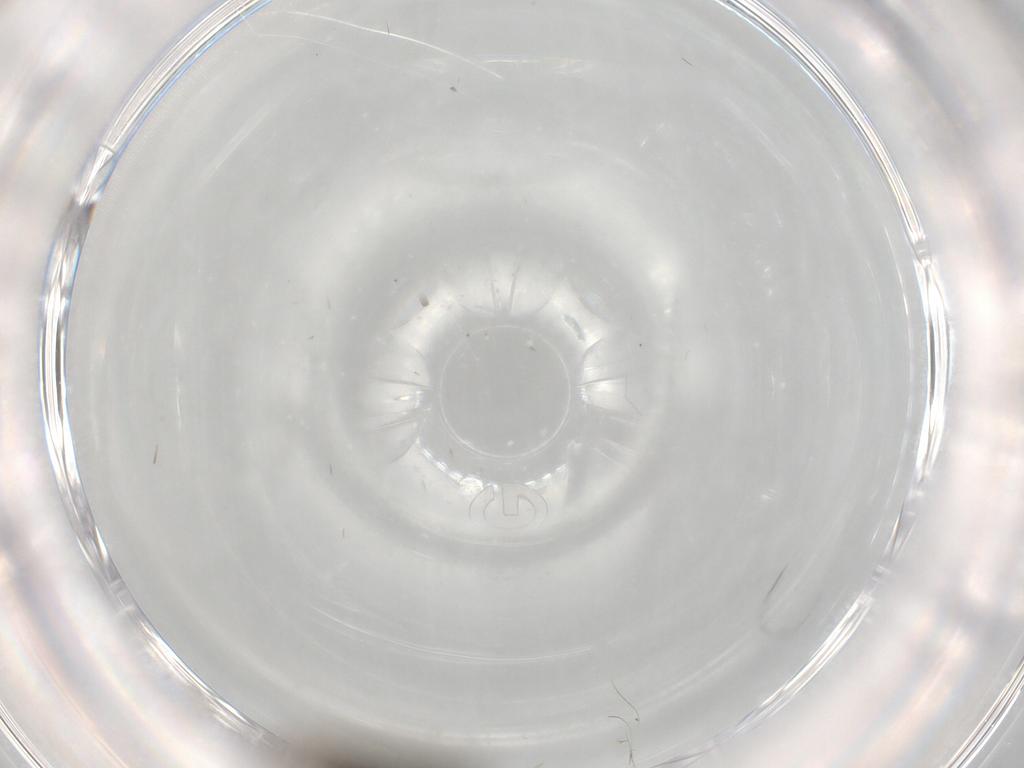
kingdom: Animalia
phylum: Arthropoda
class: Insecta
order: Diptera
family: Phoridae
